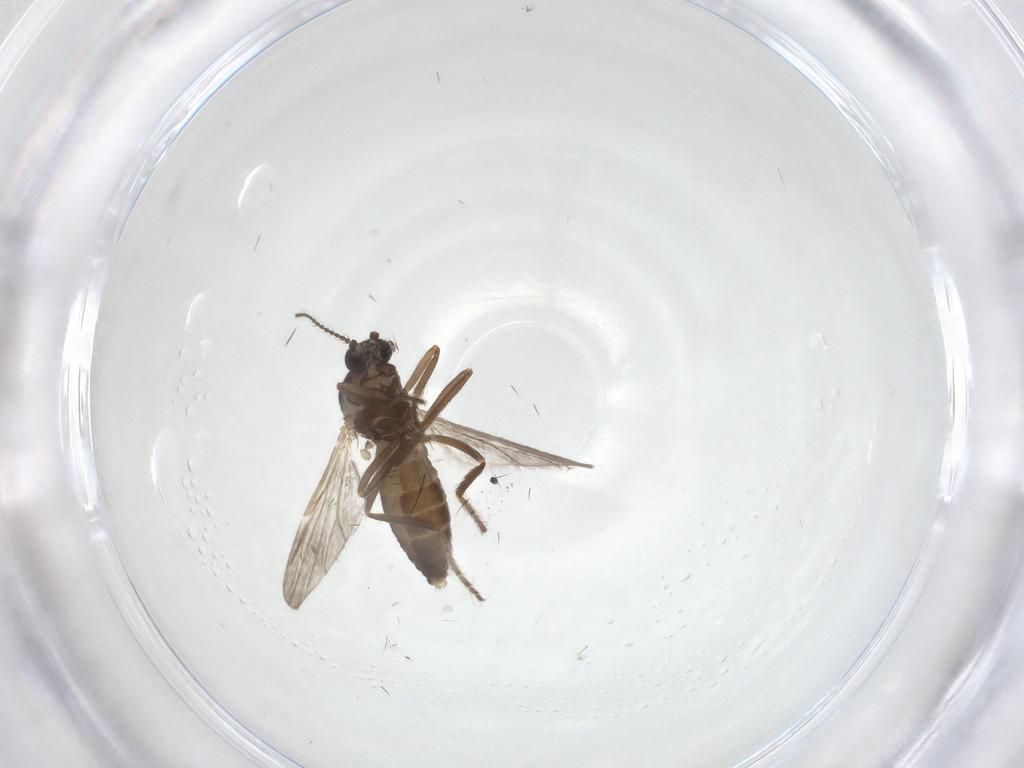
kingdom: Animalia
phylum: Arthropoda
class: Insecta
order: Diptera
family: Ceratopogonidae
